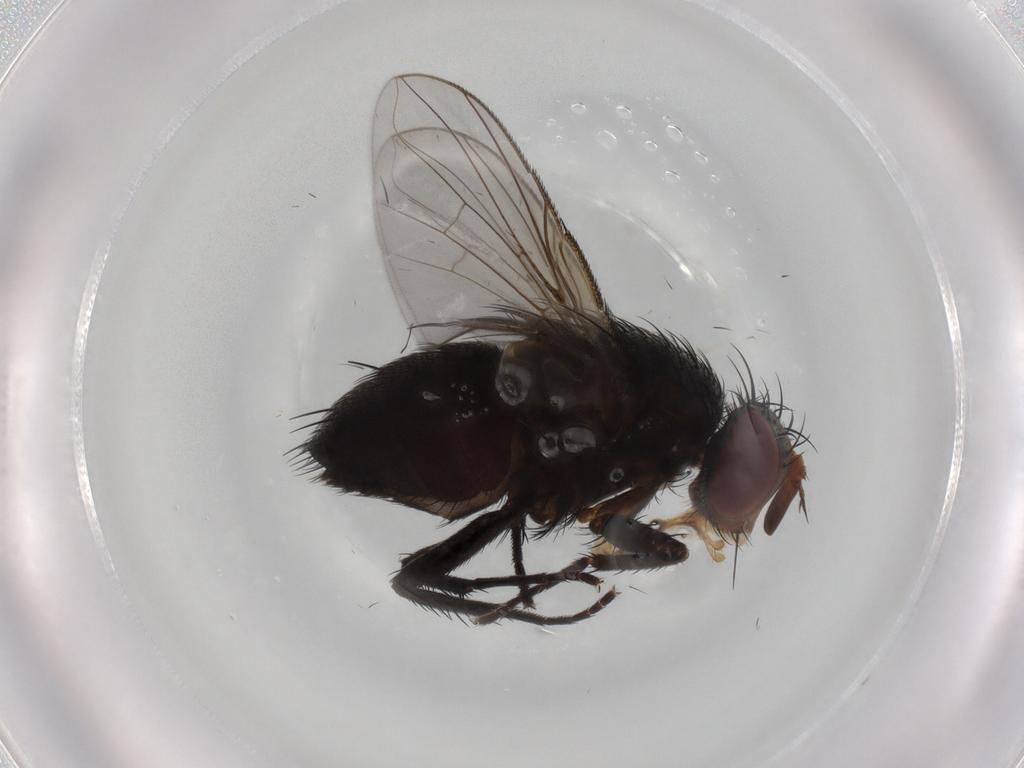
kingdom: Animalia
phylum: Arthropoda
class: Insecta
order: Diptera
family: Tachinidae
